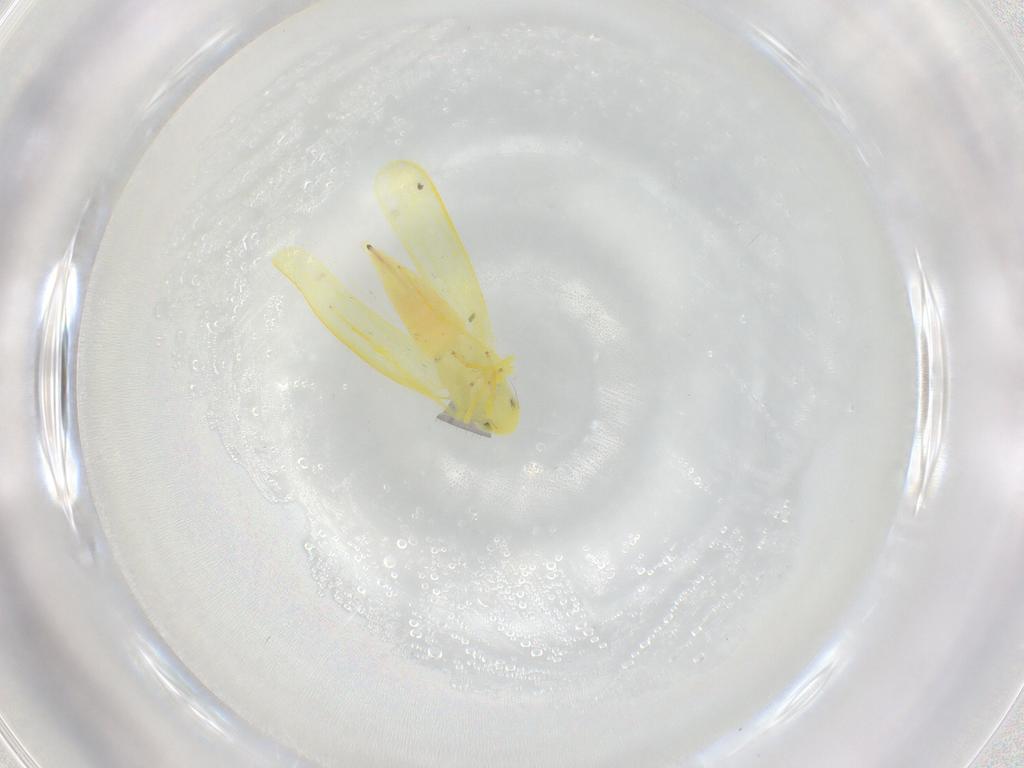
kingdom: Animalia
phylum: Arthropoda
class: Insecta
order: Hemiptera
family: Cicadellidae
